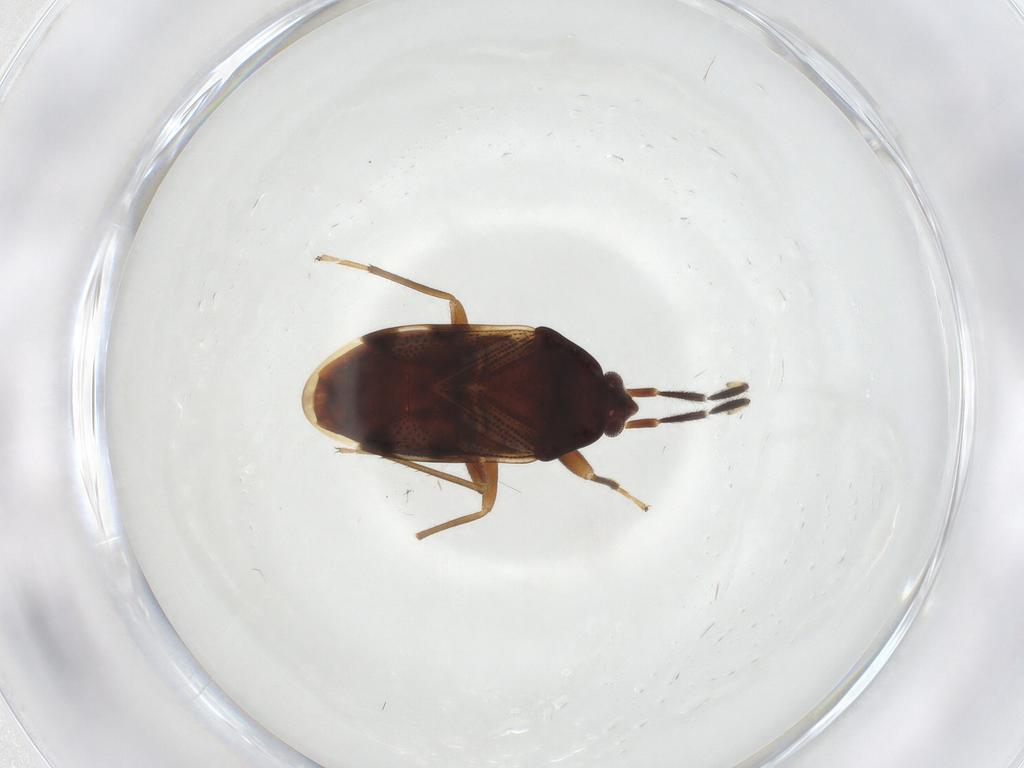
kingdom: Animalia
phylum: Arthropoda
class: Insecta
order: Hemiptera
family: Rhyparochromidae
